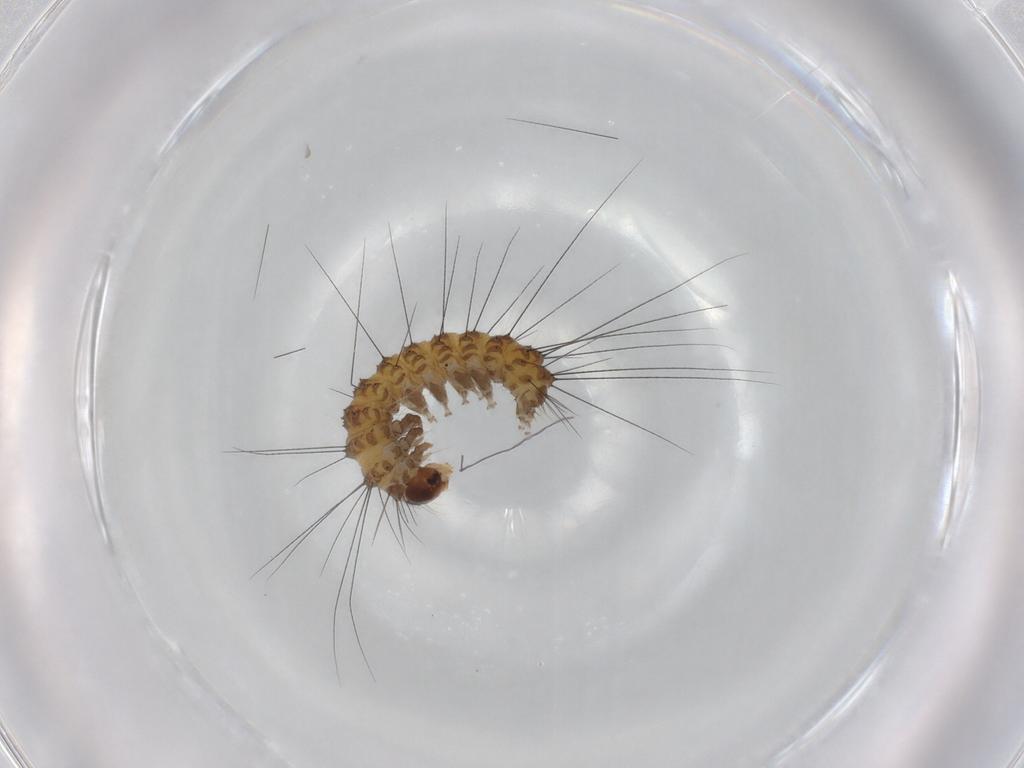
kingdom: Animalia
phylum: Arthropoda
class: Insecta
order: Lepidoptera
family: Erebidae
